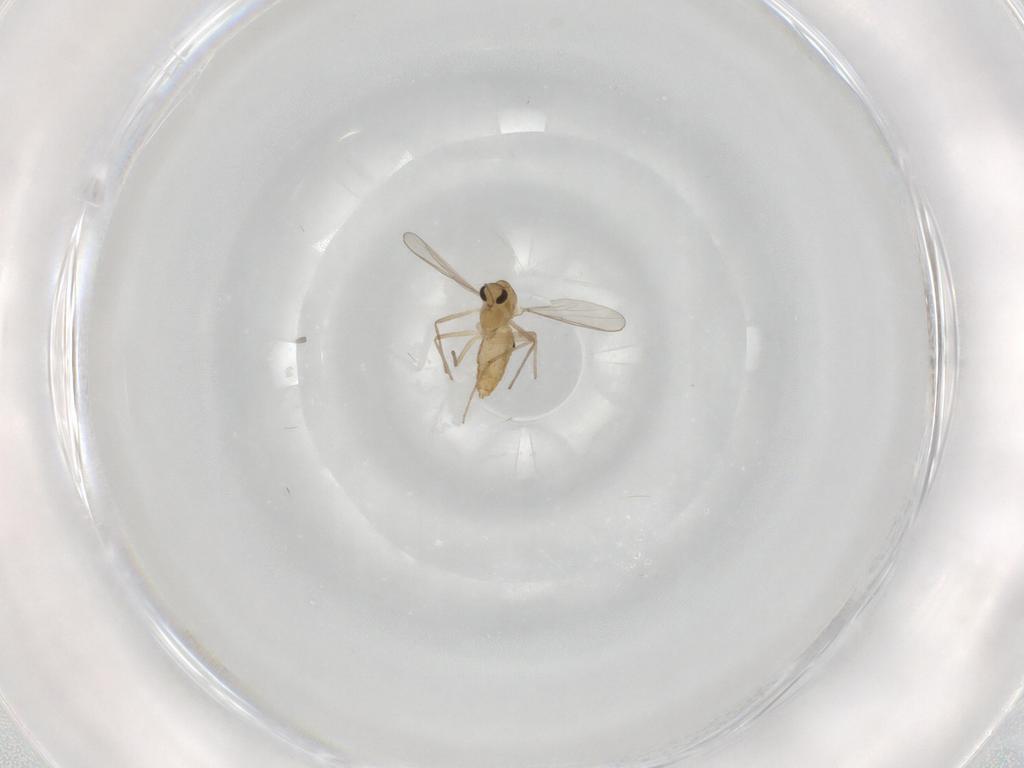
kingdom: Animalia
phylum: Arthropoda
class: Insecta
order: Diptera
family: Chironomidae
